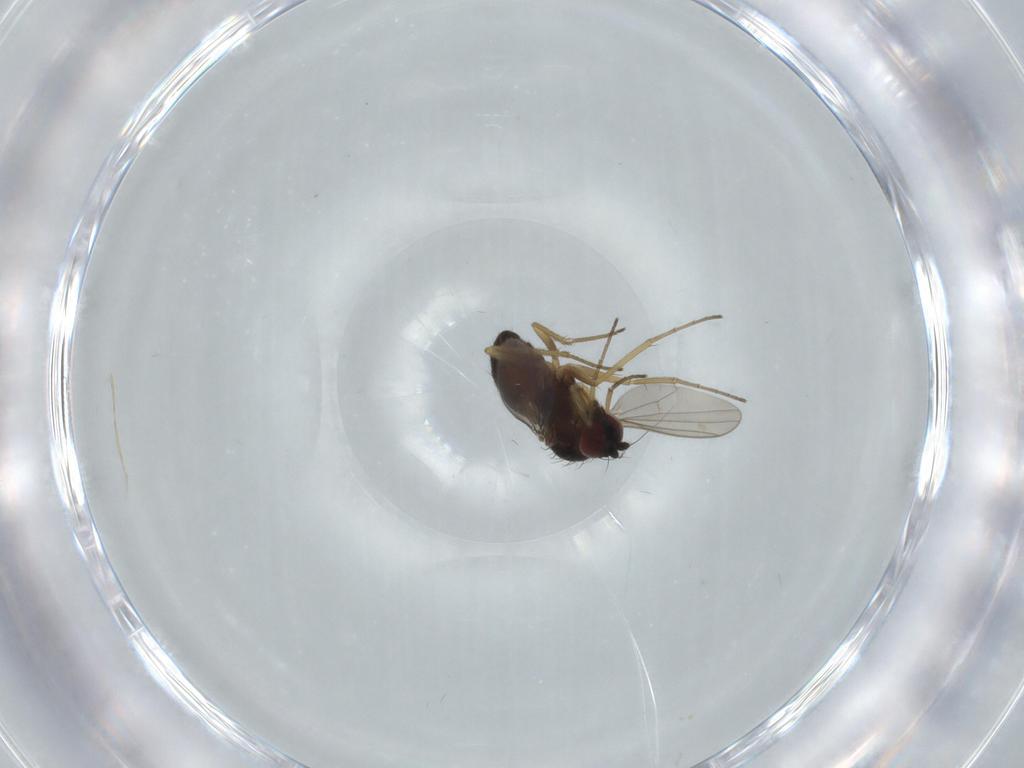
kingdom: Animalia
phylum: Arthropoda
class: Insecta
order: Diptera
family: Dolichopodidae
